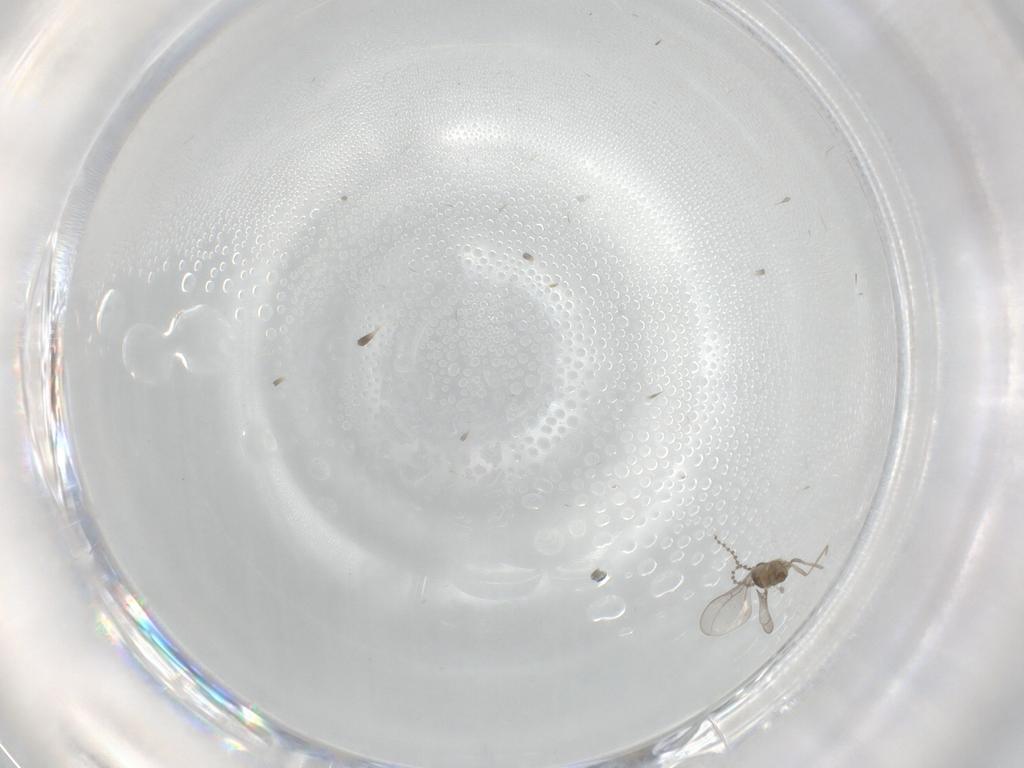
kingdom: Animalia
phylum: Arthropoda
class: Insecta
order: Diptera
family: Cecidomyiidae
